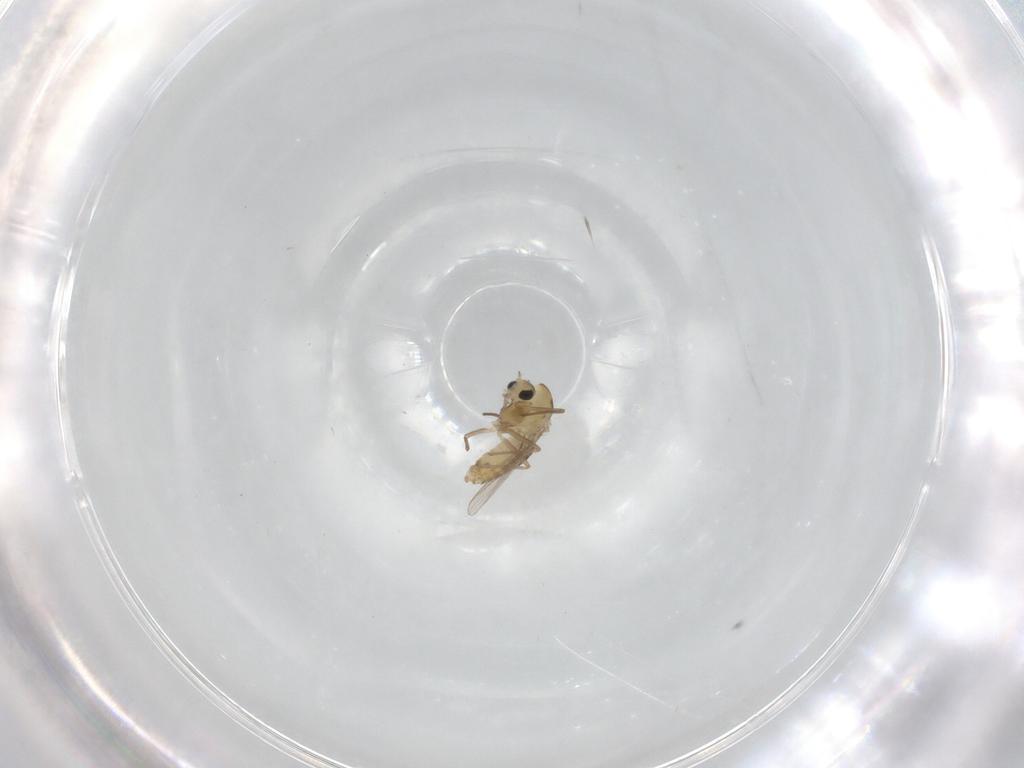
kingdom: Animalia
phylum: Arthropoda
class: Insecta
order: Diptera
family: Chironomidae
